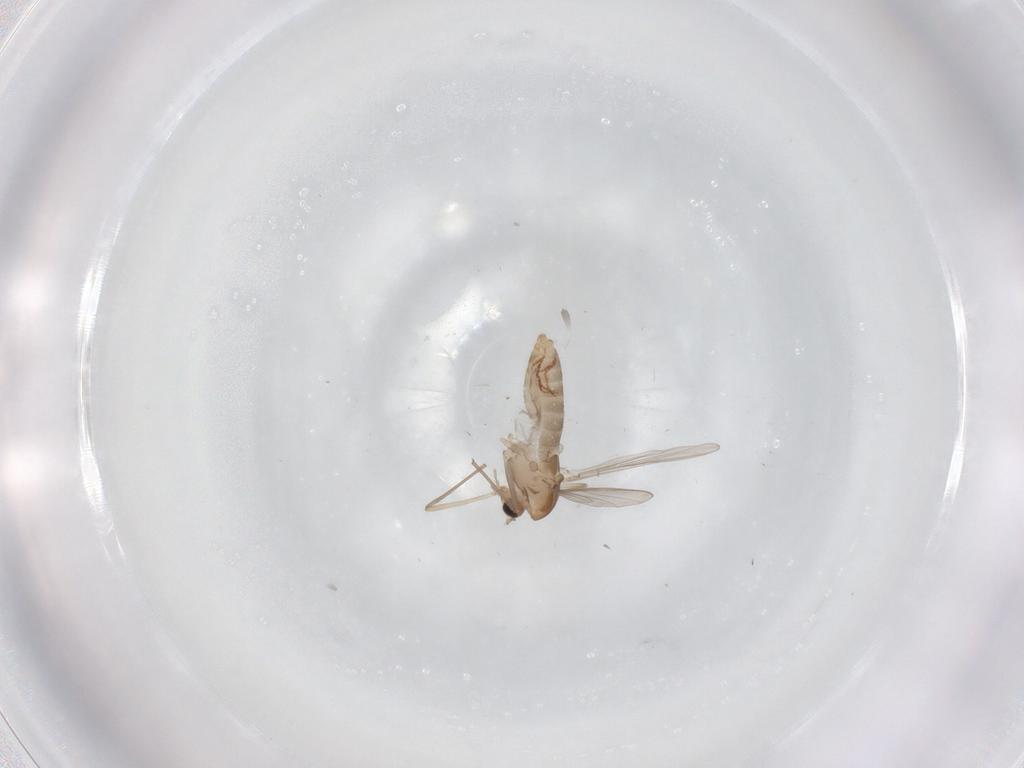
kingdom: Animalia
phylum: Arthropoda
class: Insecta
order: Diptera
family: Chironomidae
